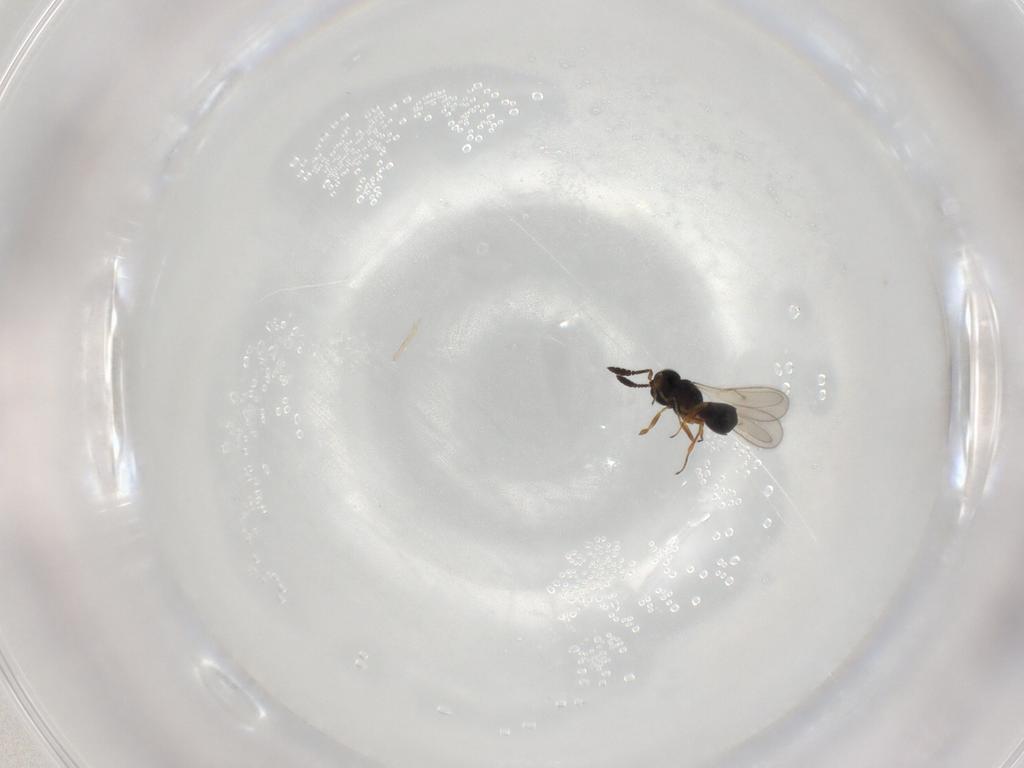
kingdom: Animalia
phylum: Arthropoda
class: Insecta
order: Hymenoptera
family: Scelionidae
